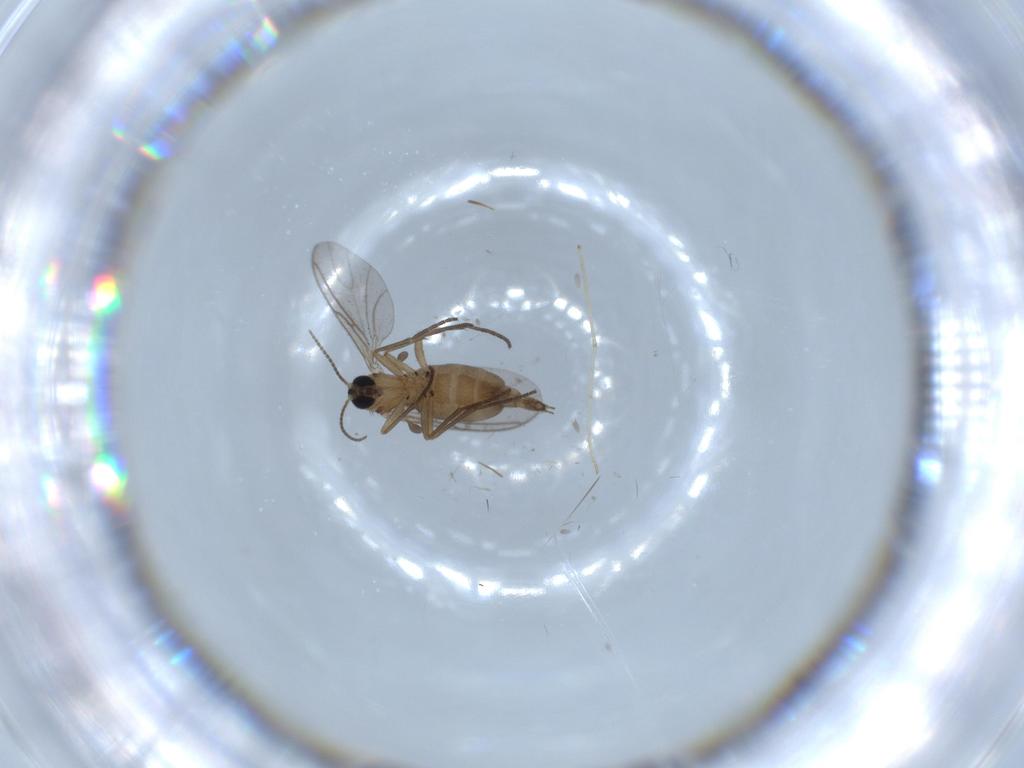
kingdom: Animalia
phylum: Arthropoda
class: Insecta
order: Diptera
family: Sciaridae
